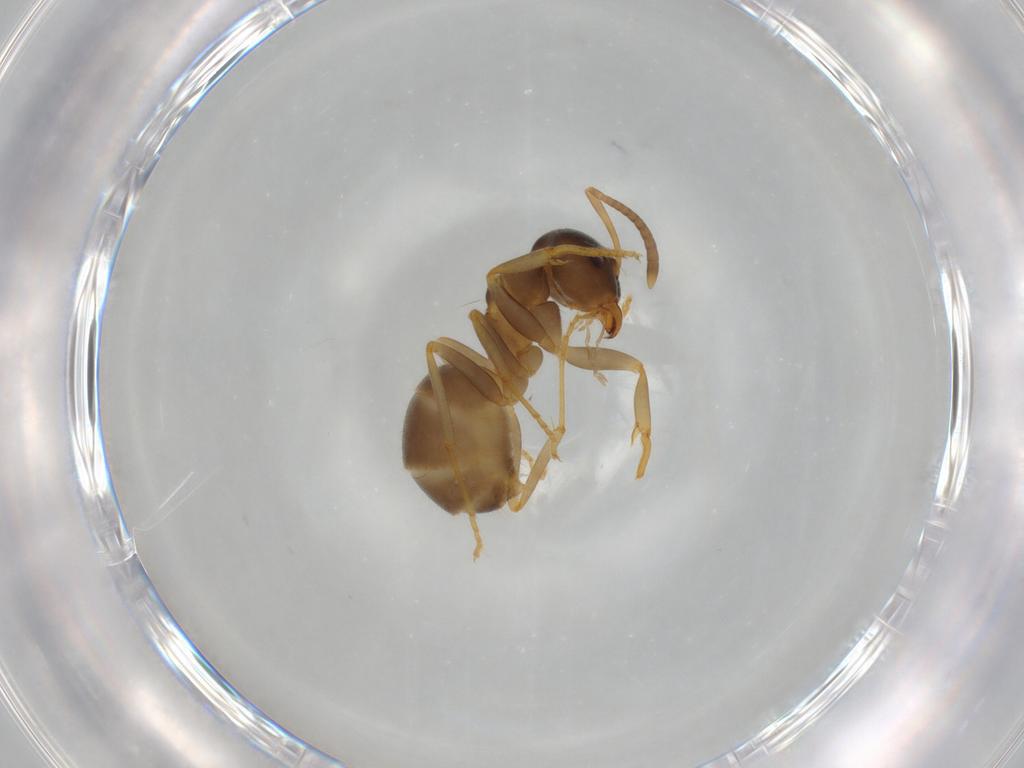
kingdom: Animalia
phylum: Arthropoda
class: Insecta
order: Hymenoptera
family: Formicidae
